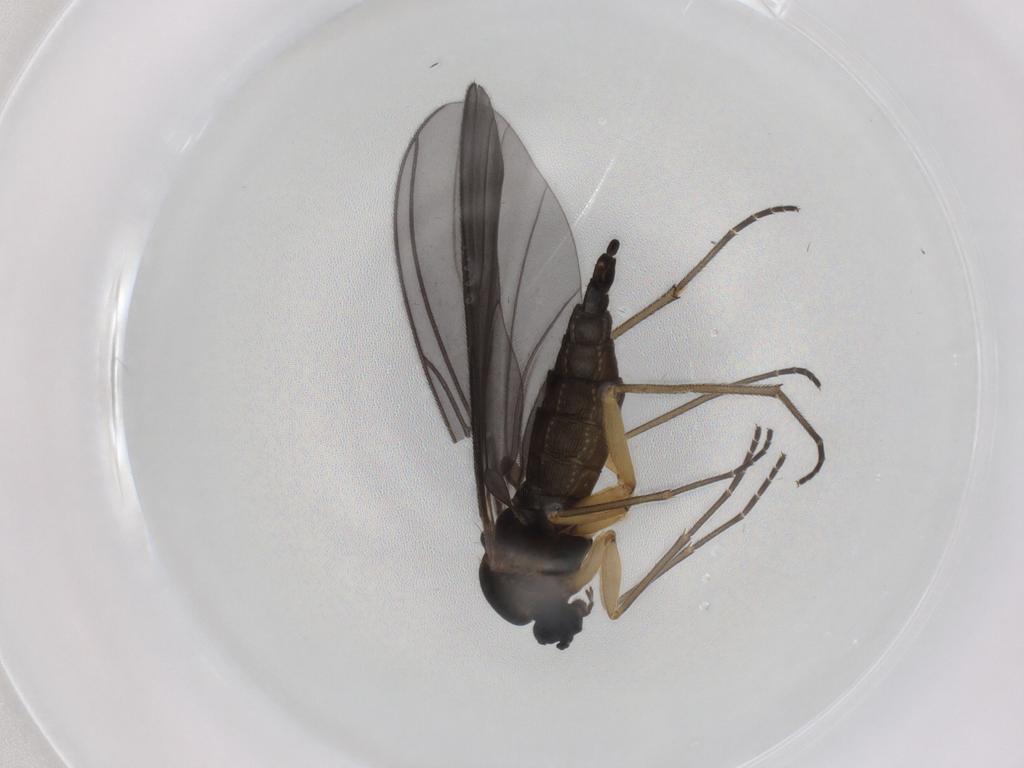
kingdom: Animalia
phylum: Arthropoda
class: Insecta
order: Diptera
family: Sciaridae
